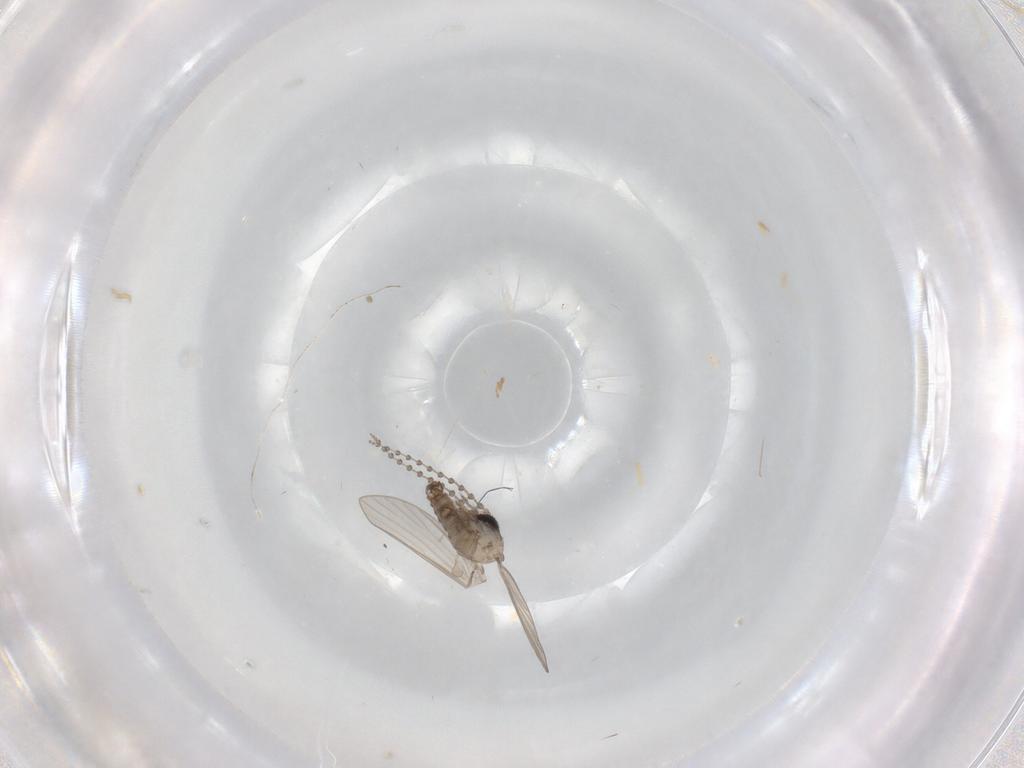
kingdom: Animalia
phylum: Arthropoda
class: Insecta
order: Diptera
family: Psychodidae
